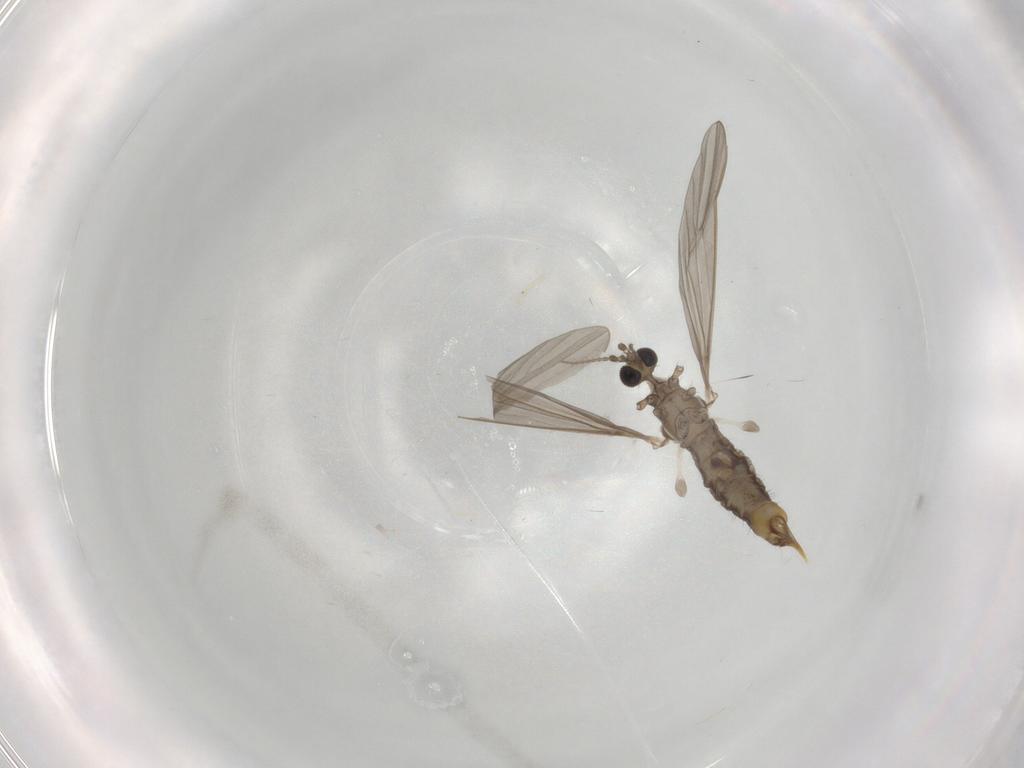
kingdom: Animalia
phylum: Arthropoda
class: Insecta
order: Diptera
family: Limoniidae
